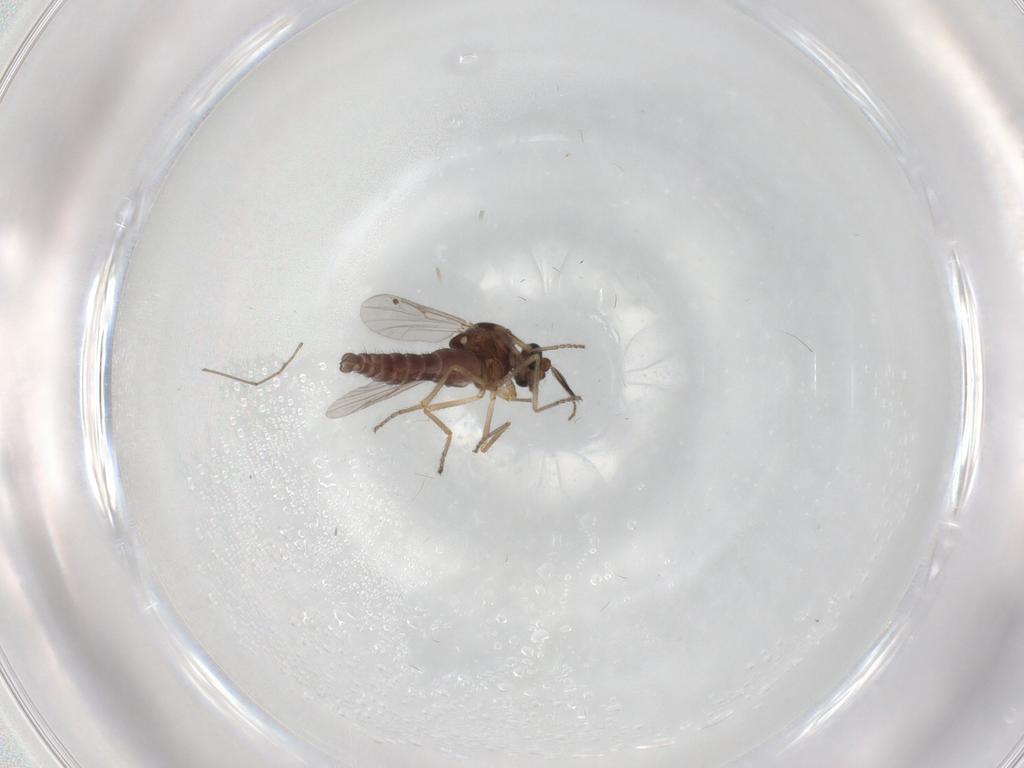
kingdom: Animalia
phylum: Arthropoda
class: Insecta
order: Diptera
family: Ceratopogonidae
